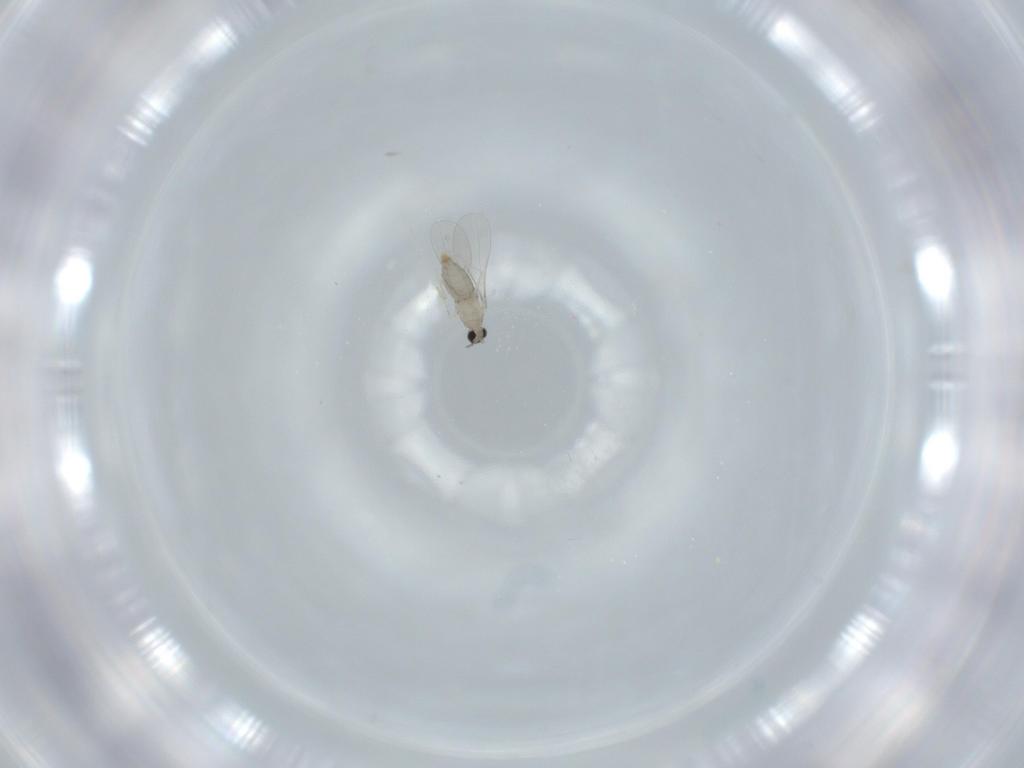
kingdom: Animalia
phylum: Arthropoda
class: Insecta
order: Diptera
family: Cecidomyiidae
